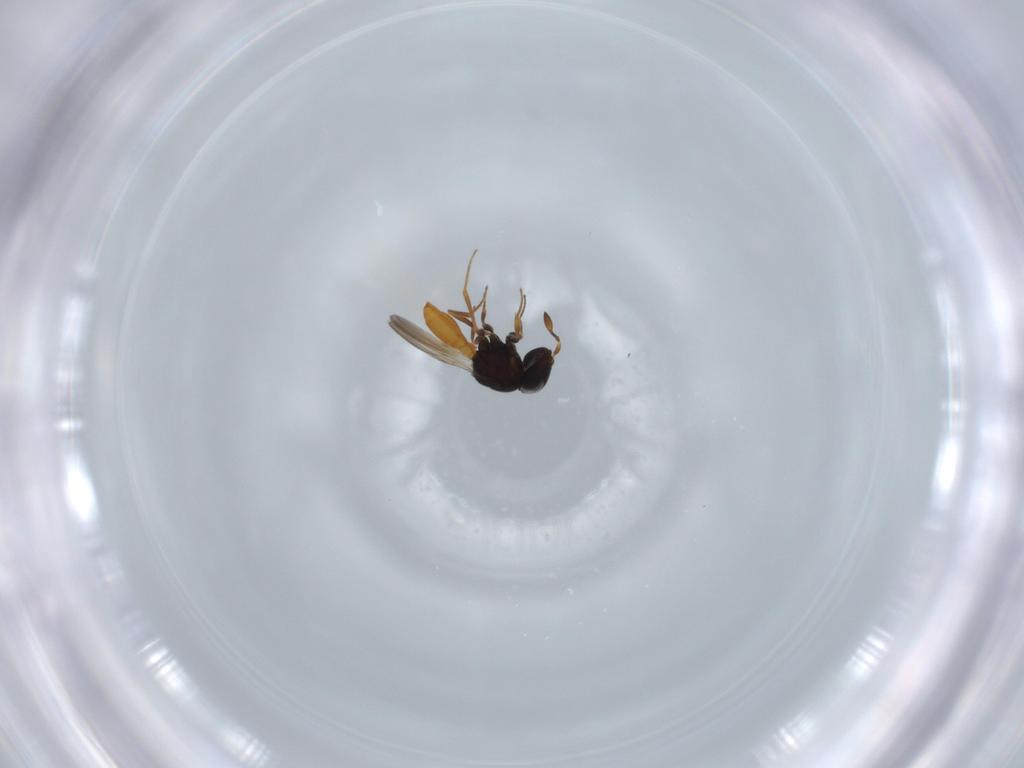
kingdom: Animalia
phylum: Arthropoda
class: Insecta
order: Hymenoptera
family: Scelionidae
